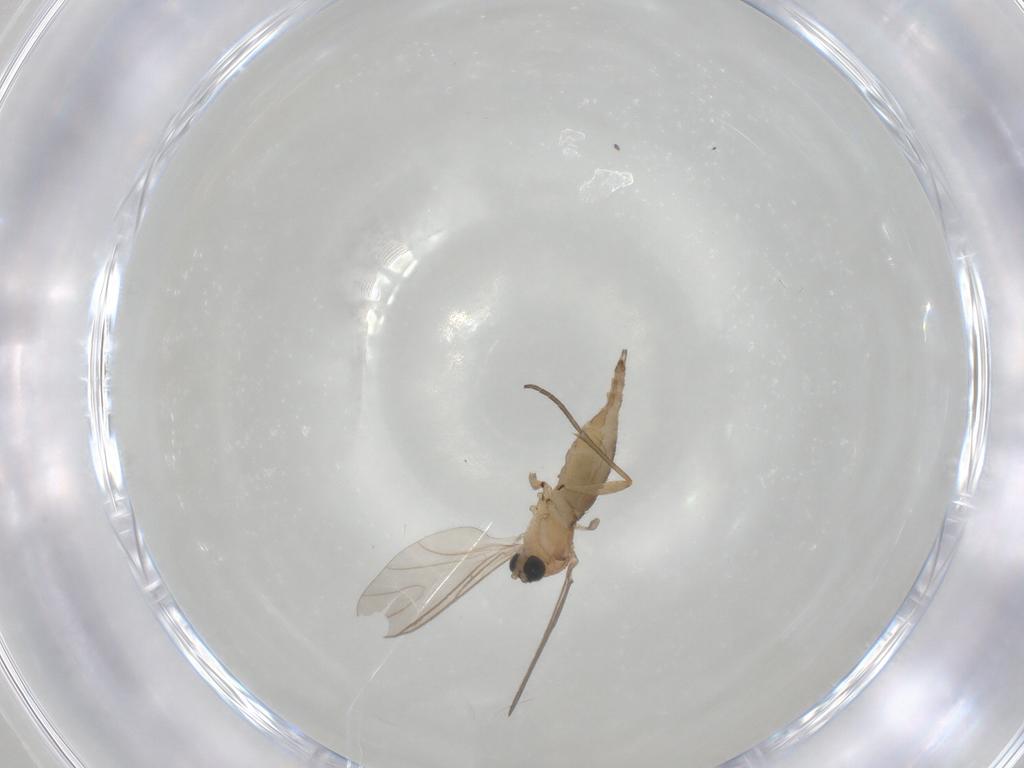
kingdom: Animalia
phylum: Arthropoda
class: Insecta
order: Diptera
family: Sciaridae
